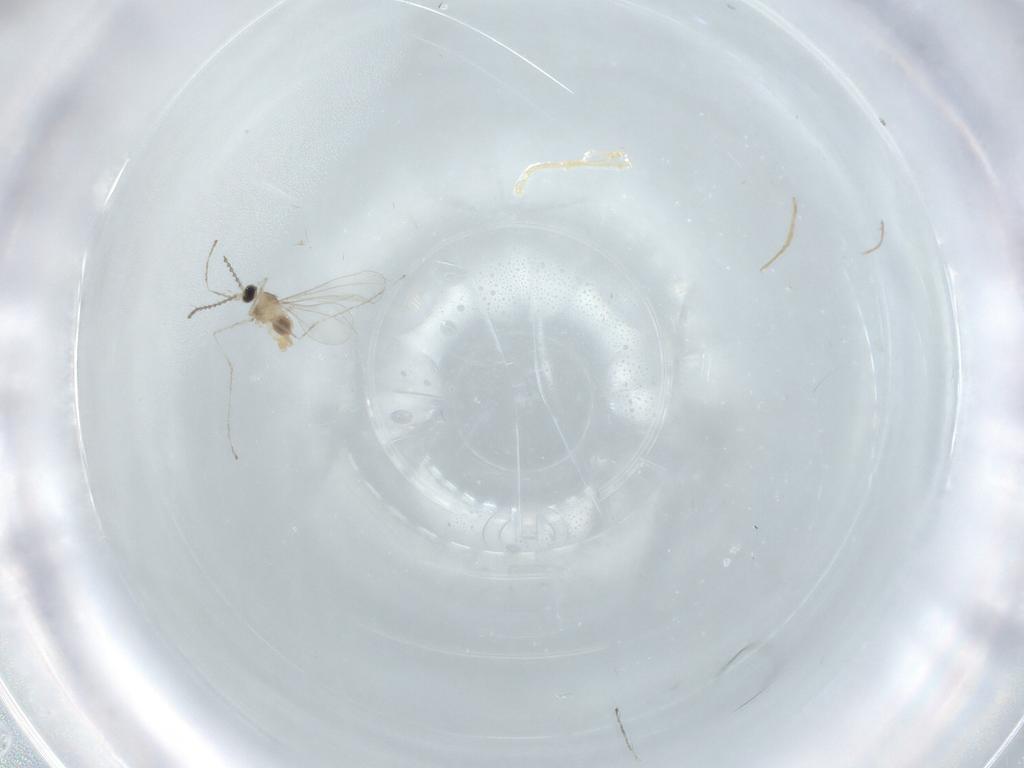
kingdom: Animalia
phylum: Arthropoda
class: Insecta
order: Diptera
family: Cecidomyiidae
